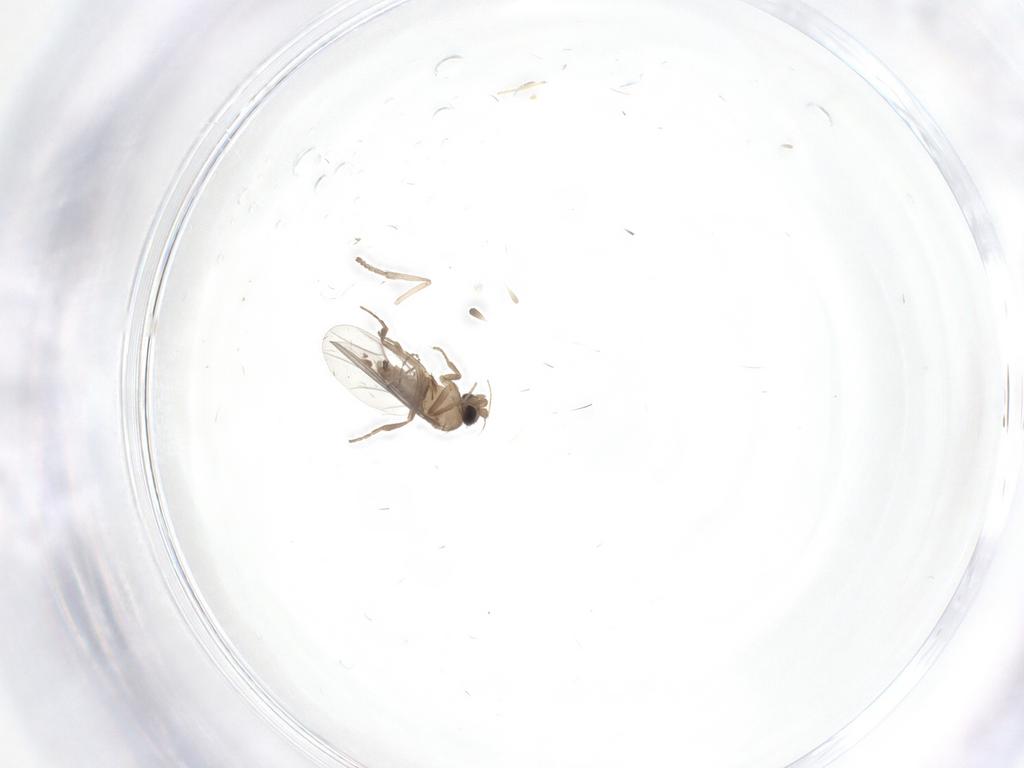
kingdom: Animalia
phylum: Arthropoda
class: Insecta
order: Diptera
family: Cecidomyiidae
